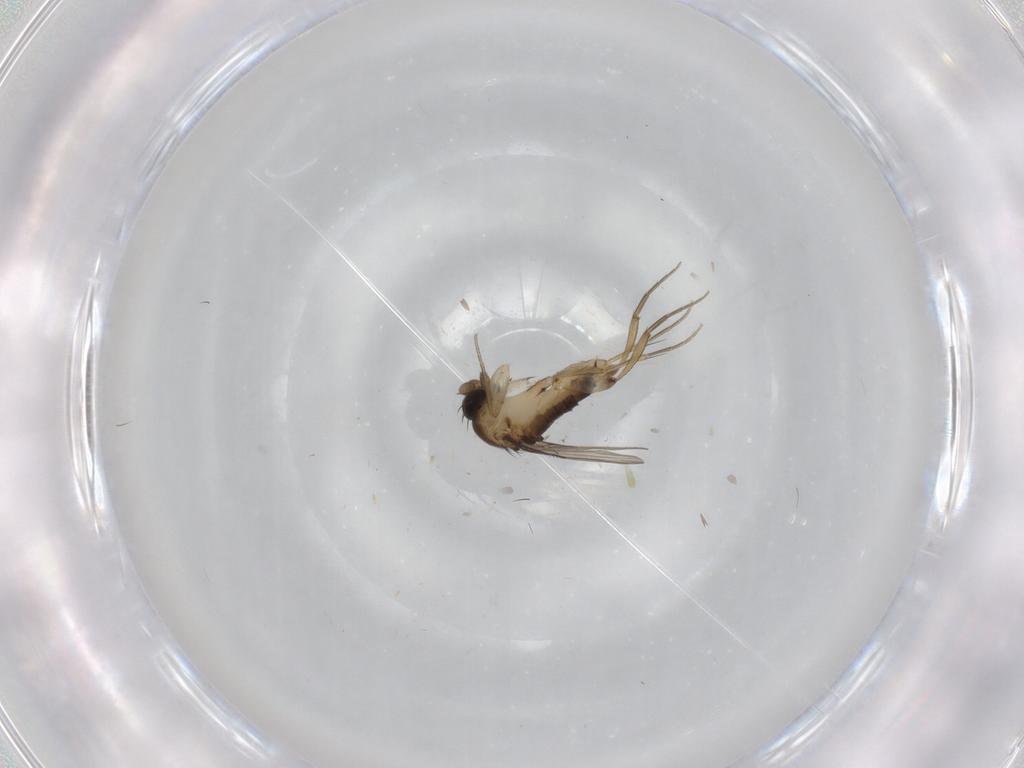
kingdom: Animalia
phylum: Arthropoda
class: Insecta
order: Diptera
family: Phoridae
